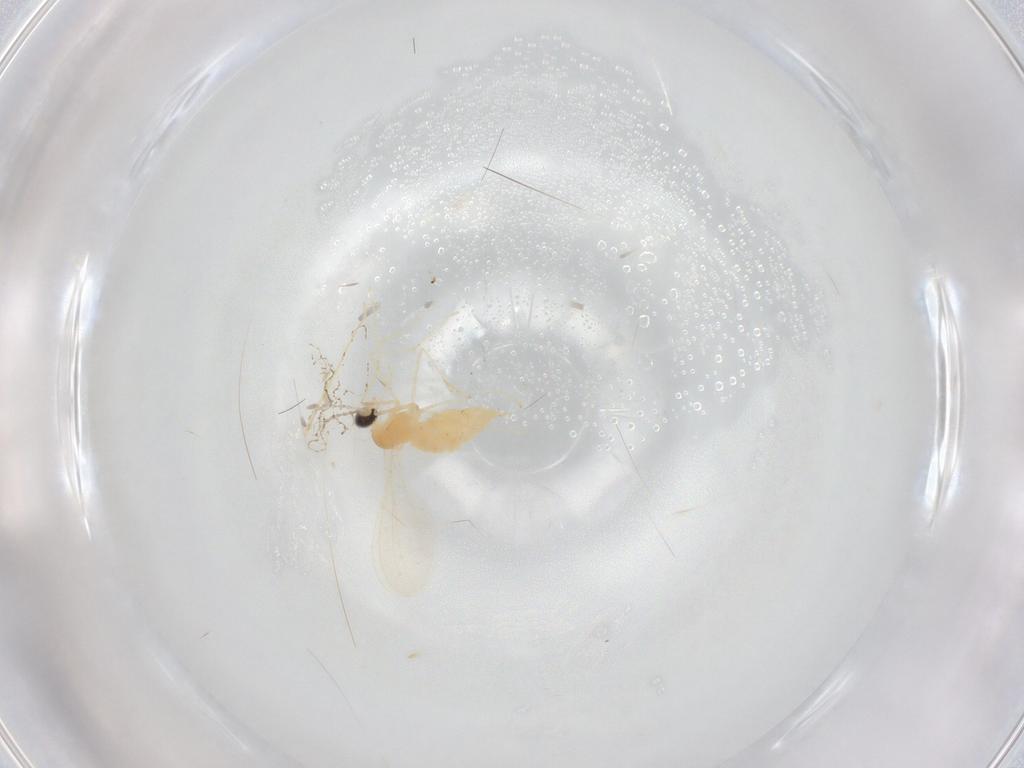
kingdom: Animalia
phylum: Arthropoda
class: Insecta
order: Diptera
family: Cecidomyiidae
